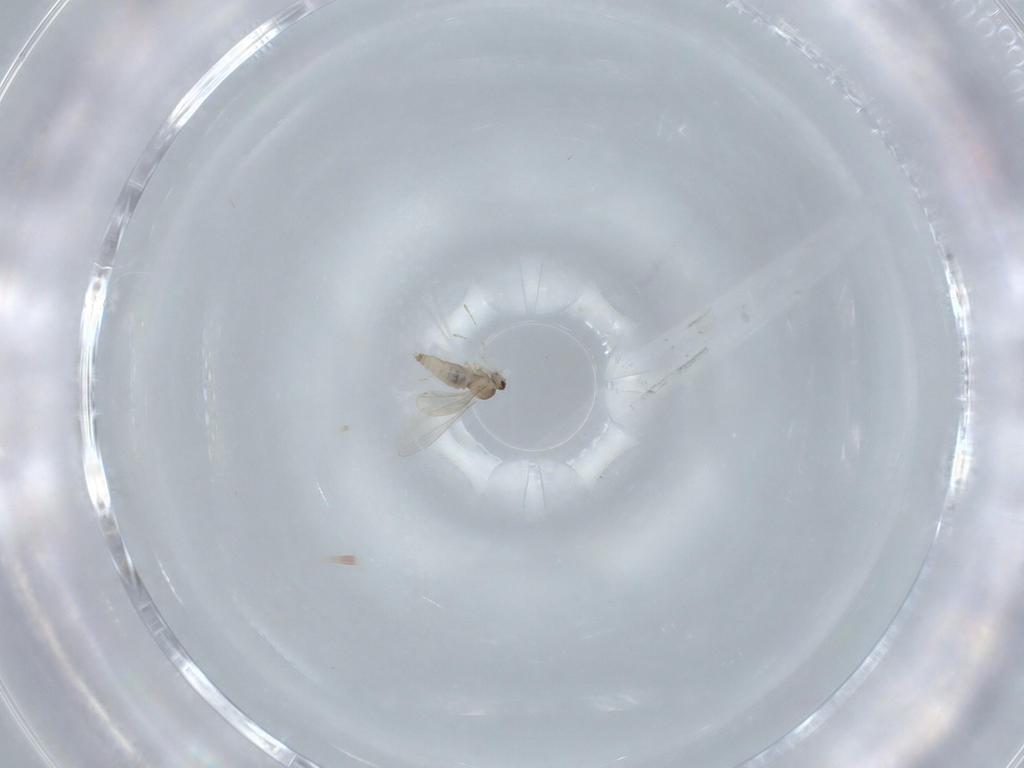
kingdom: Animalia
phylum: Arthropoda
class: Insecta
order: Diptera
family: Cecidomyiidae
